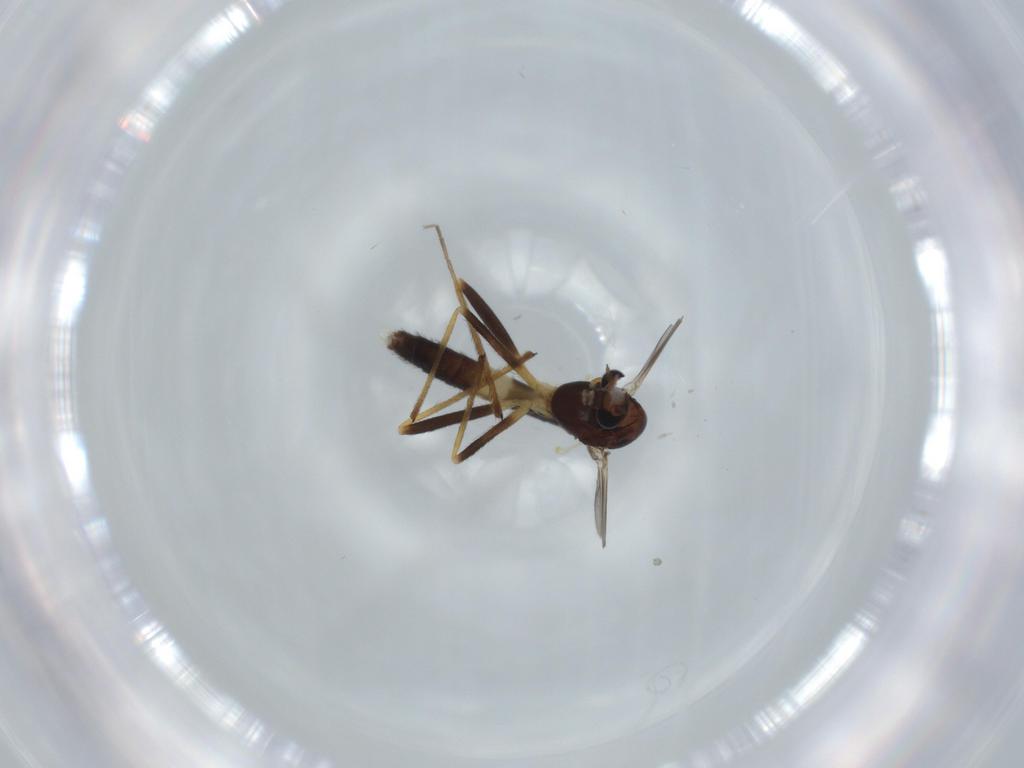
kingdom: Animalia
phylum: Arthropoda
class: Insecta
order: Diptera
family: Chironomidae
